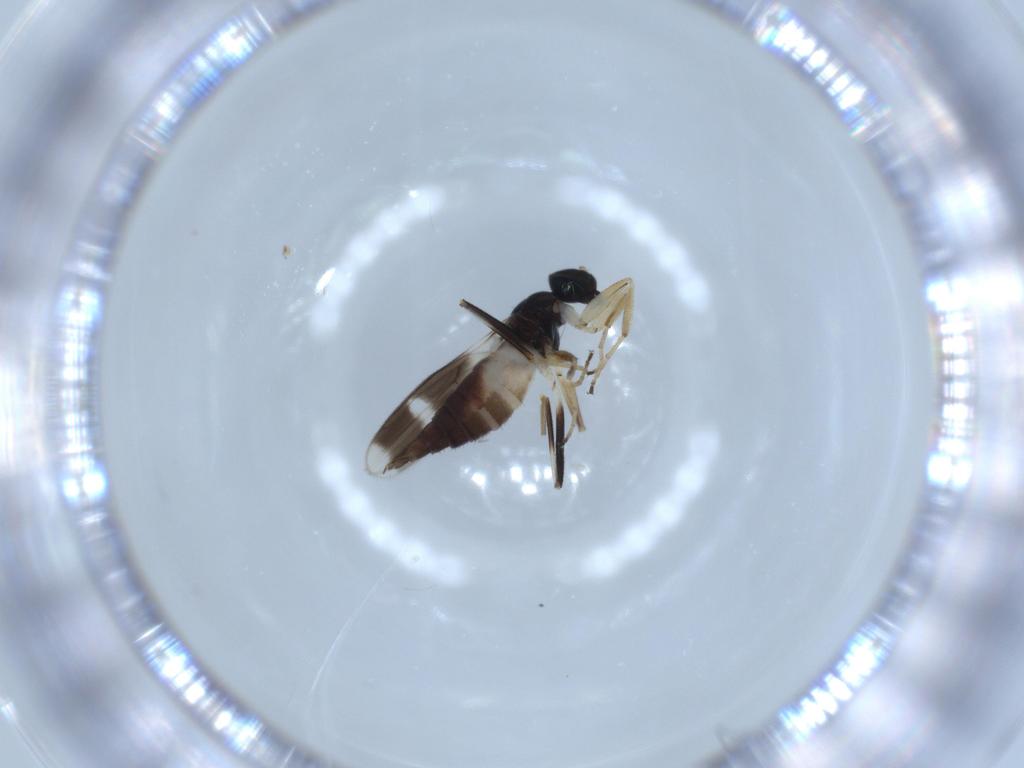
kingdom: Animalia
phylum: Arthropoda
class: Insecta
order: Diptera
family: Hybotidae
